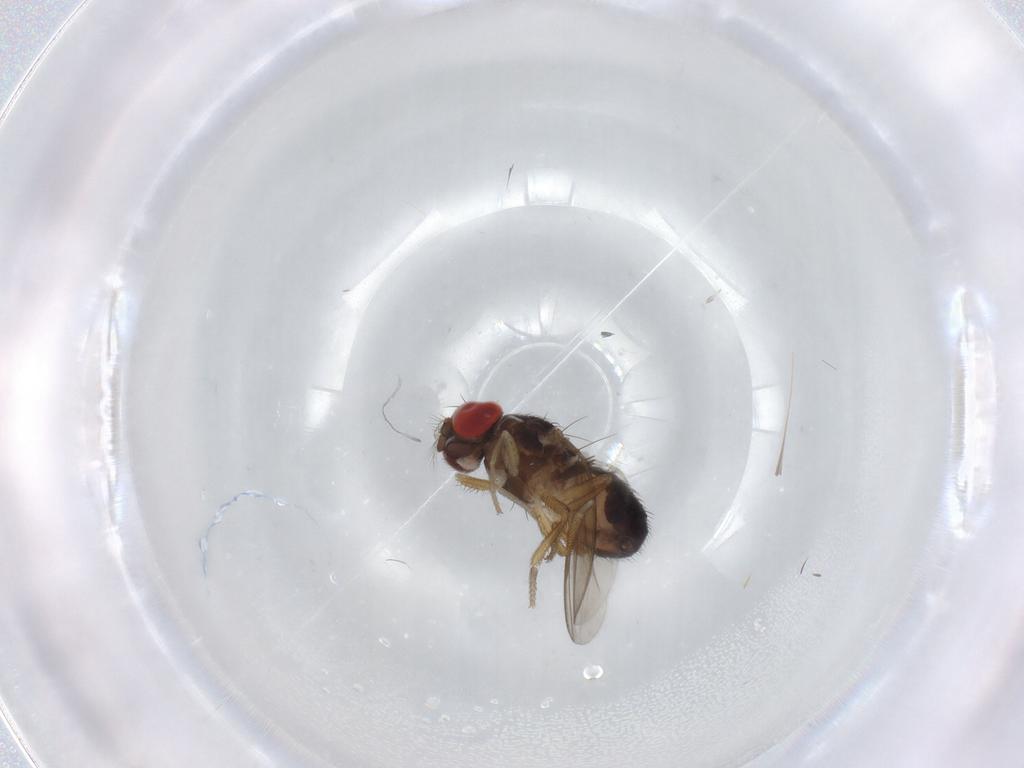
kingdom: Animalia
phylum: Arthropoda
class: Insecta
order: Diptera
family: Drosophilidae
